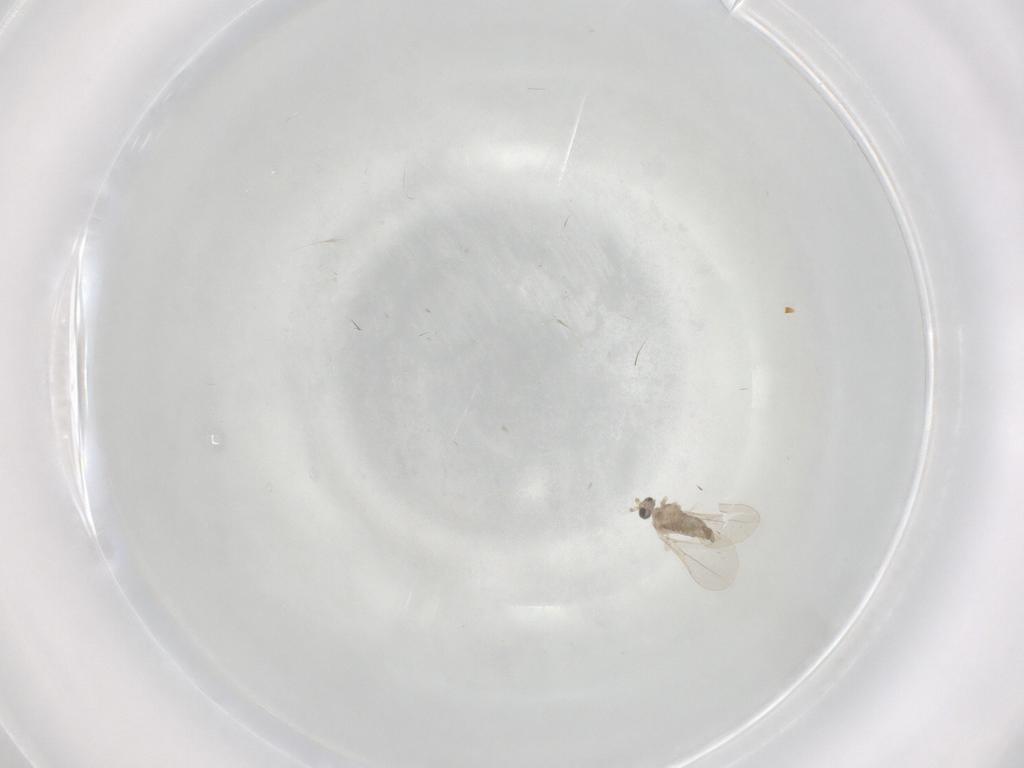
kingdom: Animalia
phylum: Arthropoda
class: Insecta
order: Diptera
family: Cecidomyiidae
